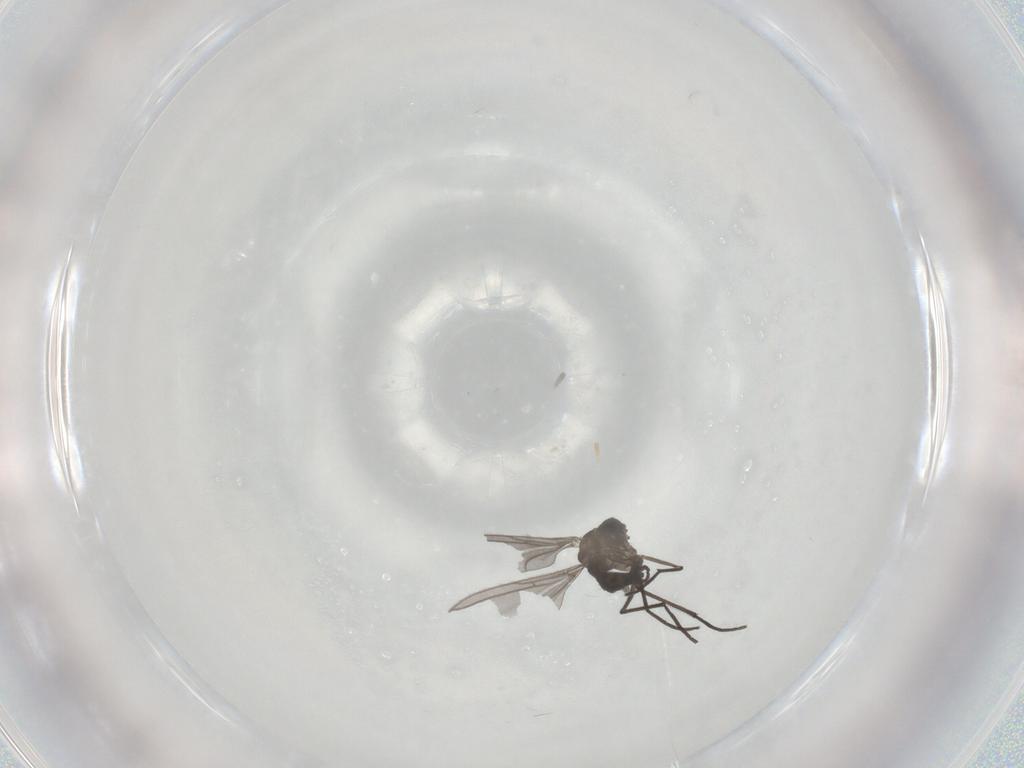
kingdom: Animalia
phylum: Arthropoda
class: Insecta
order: Diptera
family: Sciaridae
